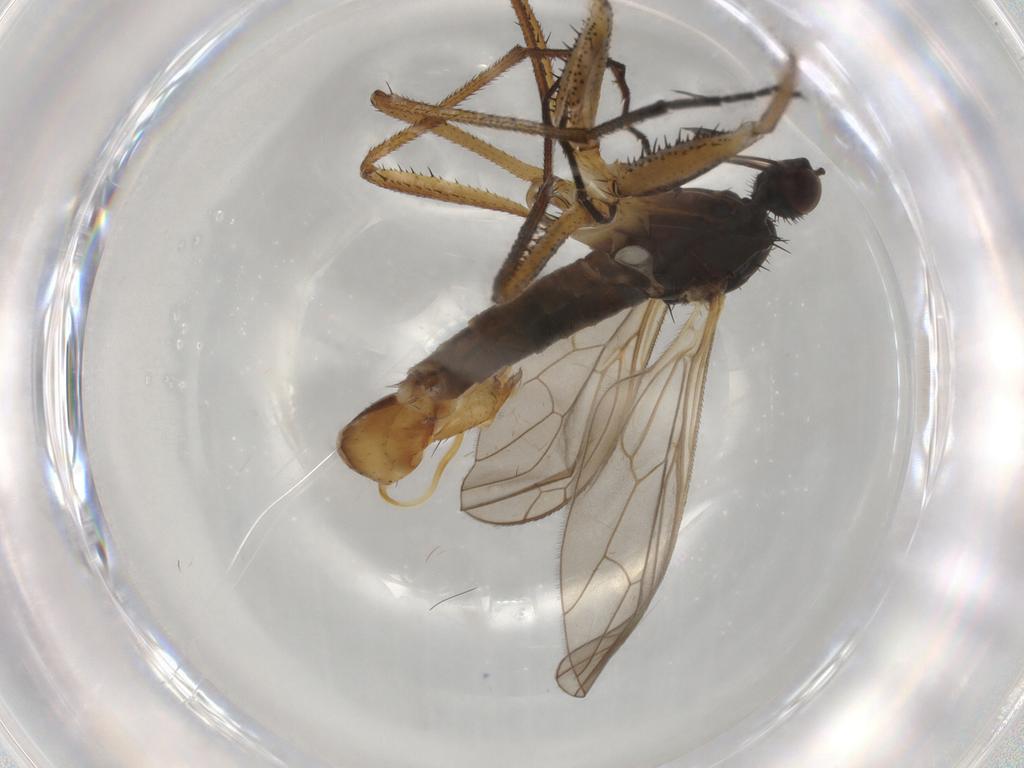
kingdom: Animalia
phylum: Arthropoda
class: Insecta
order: Diptera
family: Empididae
